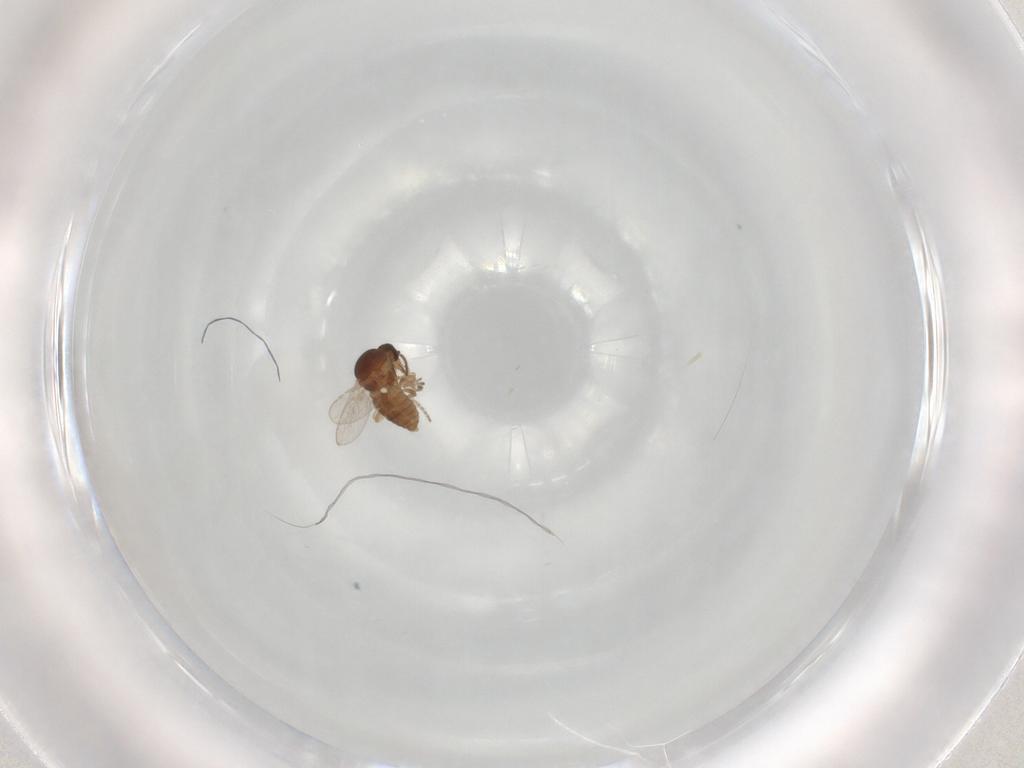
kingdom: Animalia
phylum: Arthropoda
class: Insecta
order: Diptera
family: Ceratopogonidae
